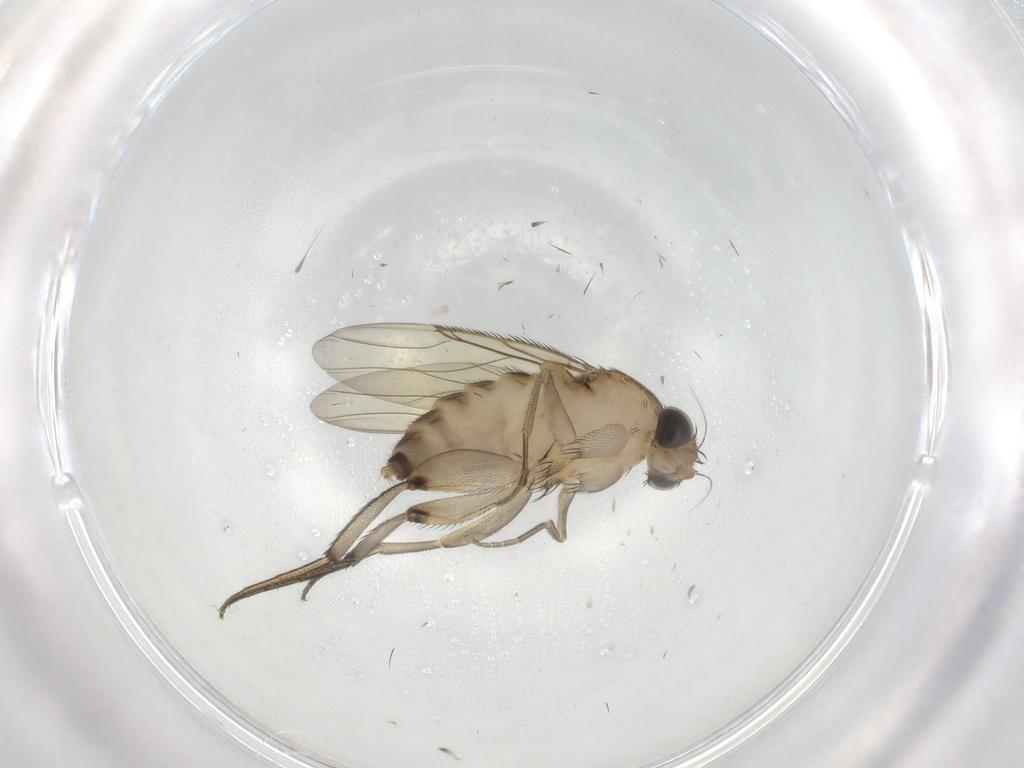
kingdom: Animalia
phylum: Arthropoda
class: Insecta
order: Diptera
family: Phoridae
